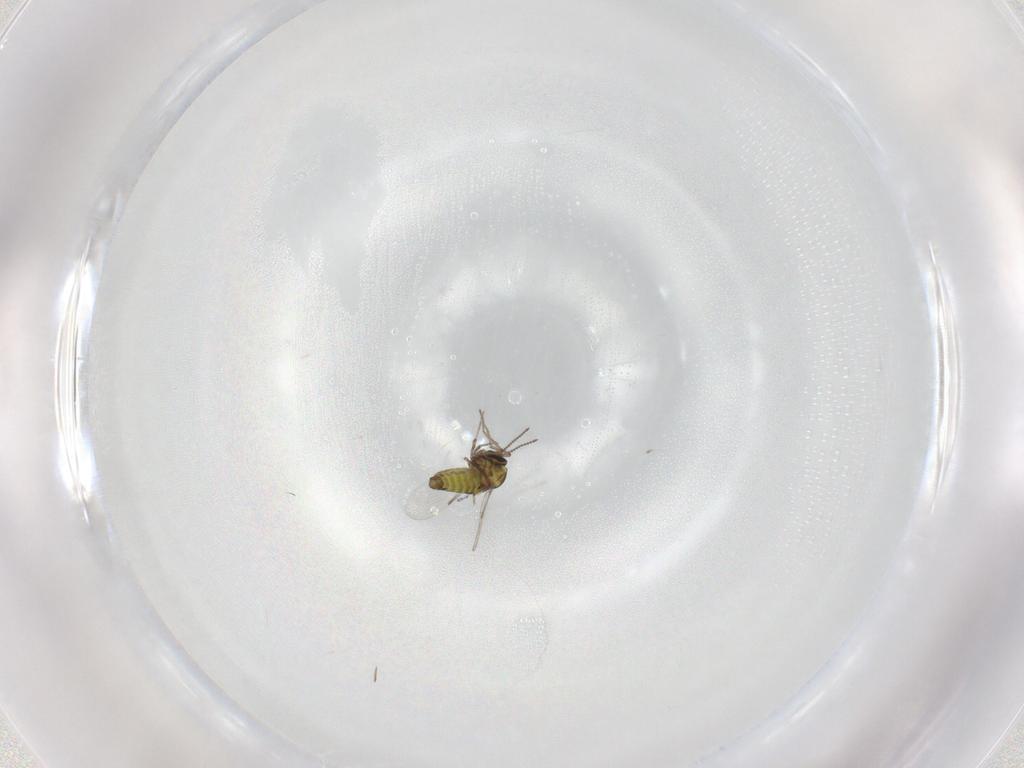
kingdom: Animalia
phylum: Arthropoda
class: Insecta
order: Diptera
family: Ceratopogonidae
